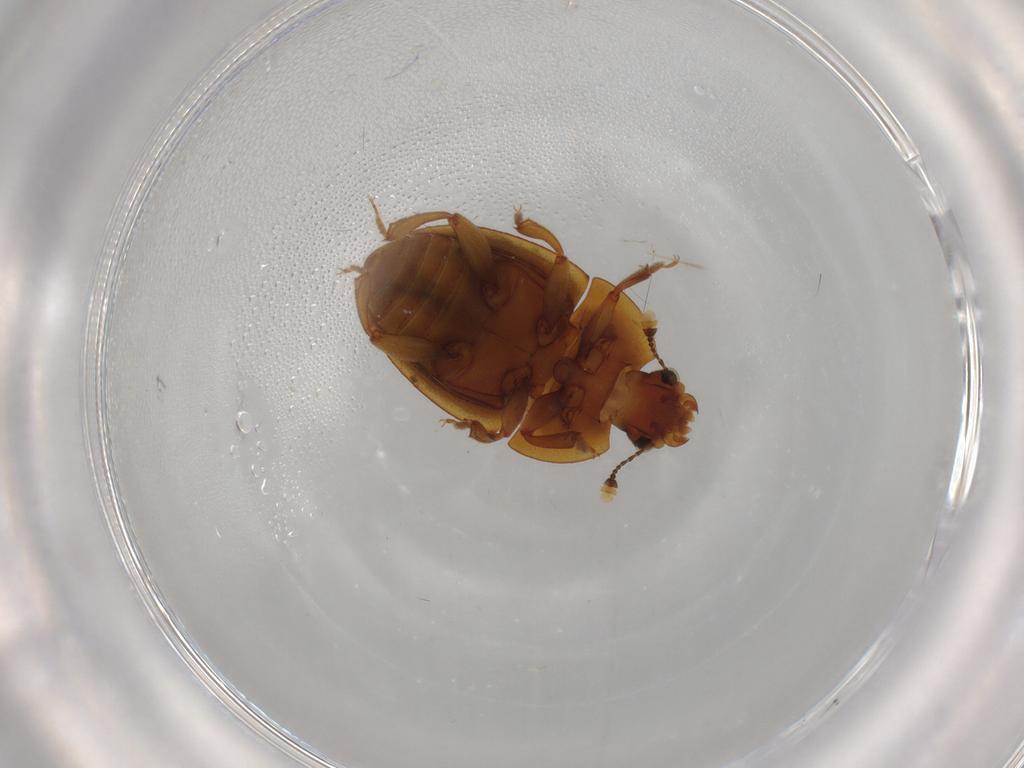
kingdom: Animalia
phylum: Arthropoda
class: Insecta
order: Coleoptera
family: Nitidulidae
